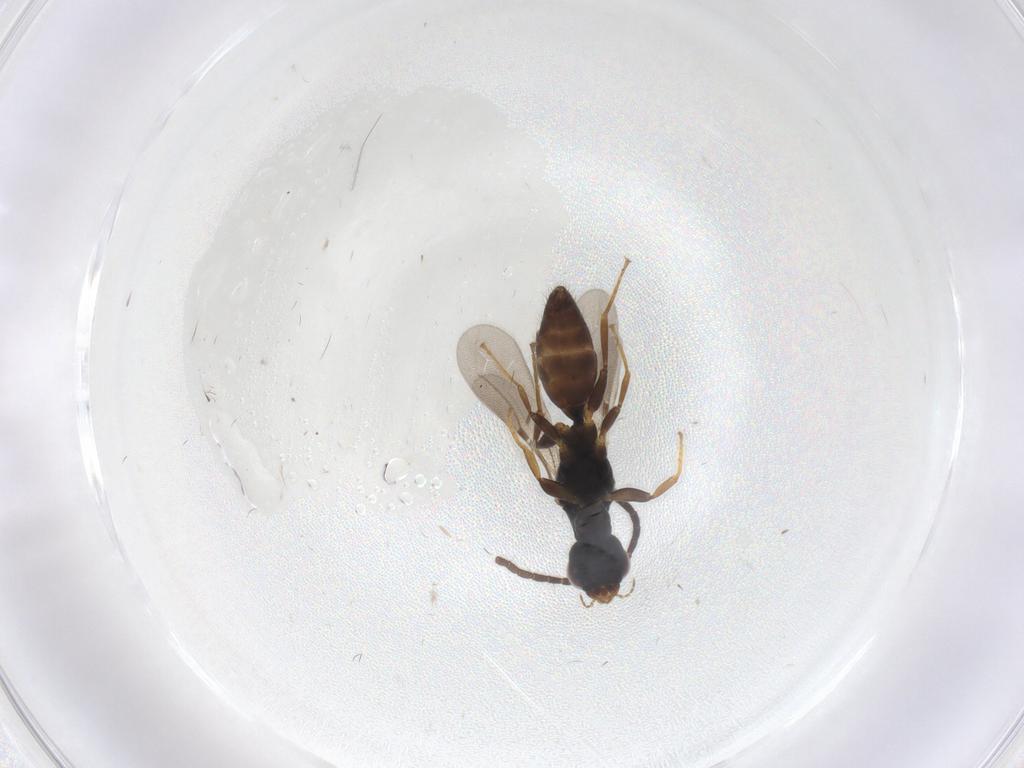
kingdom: Animalia
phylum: Arthropoda
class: Insecta
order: Hymenoptera
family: Bethylidae
